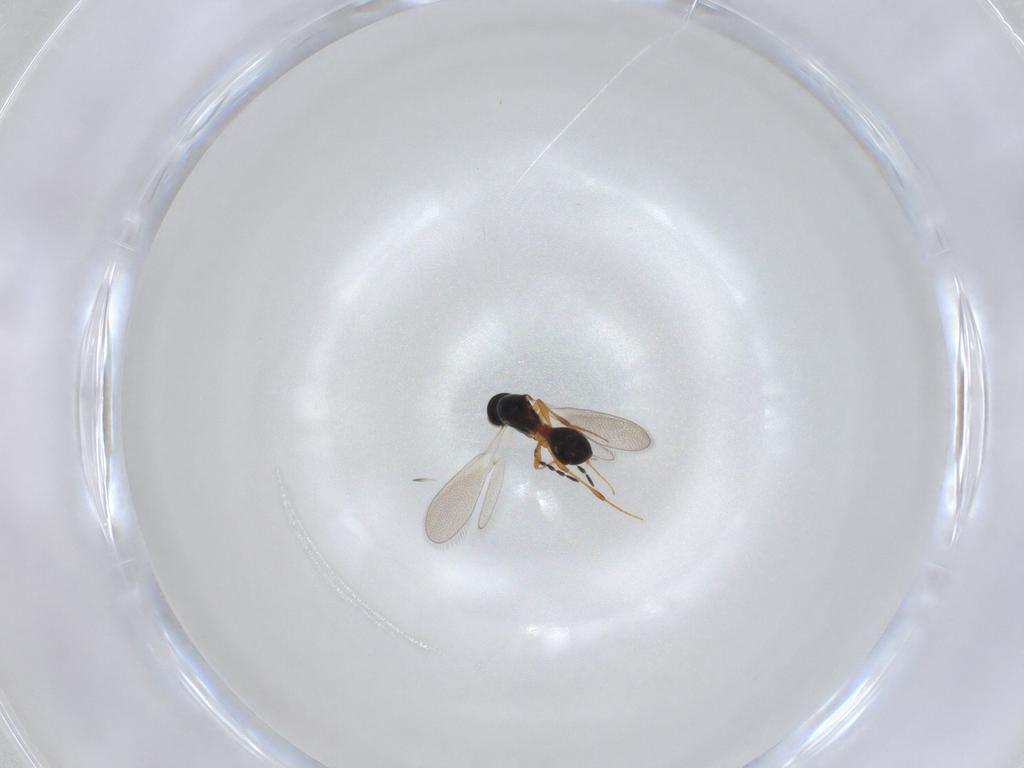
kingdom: Animalia
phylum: Arthropoda
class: Insecta
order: Hymenoptera
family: Platygastridae
